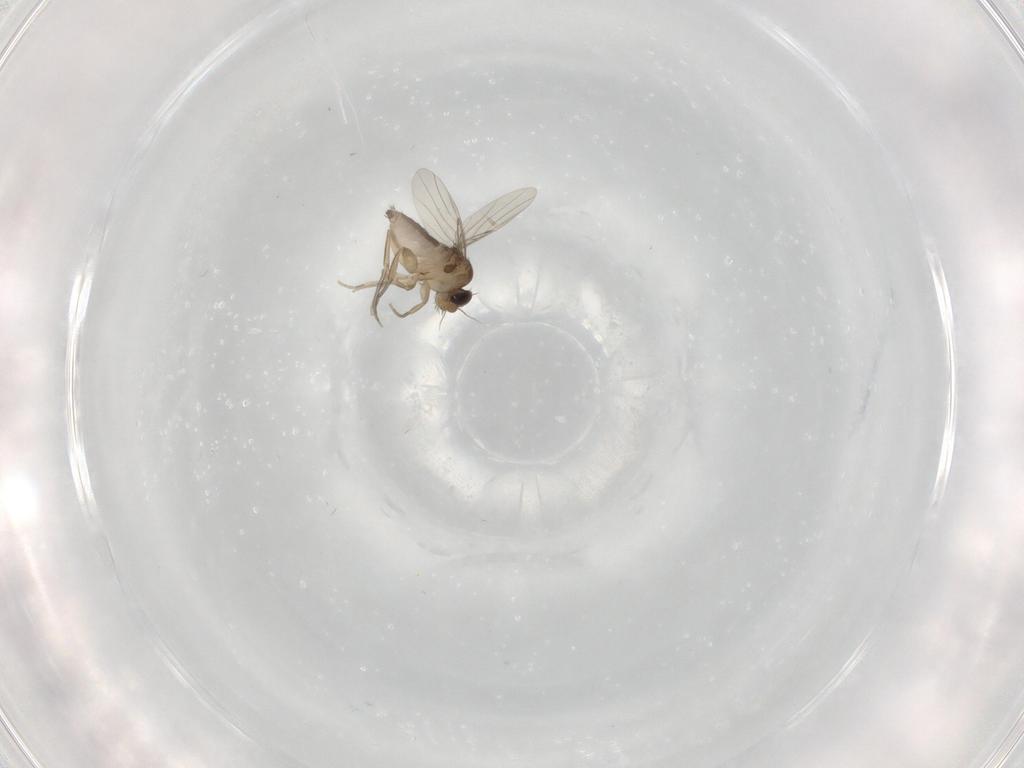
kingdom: Animalia
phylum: Arthropoda
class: Insecta
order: Diptera
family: Phoridae
